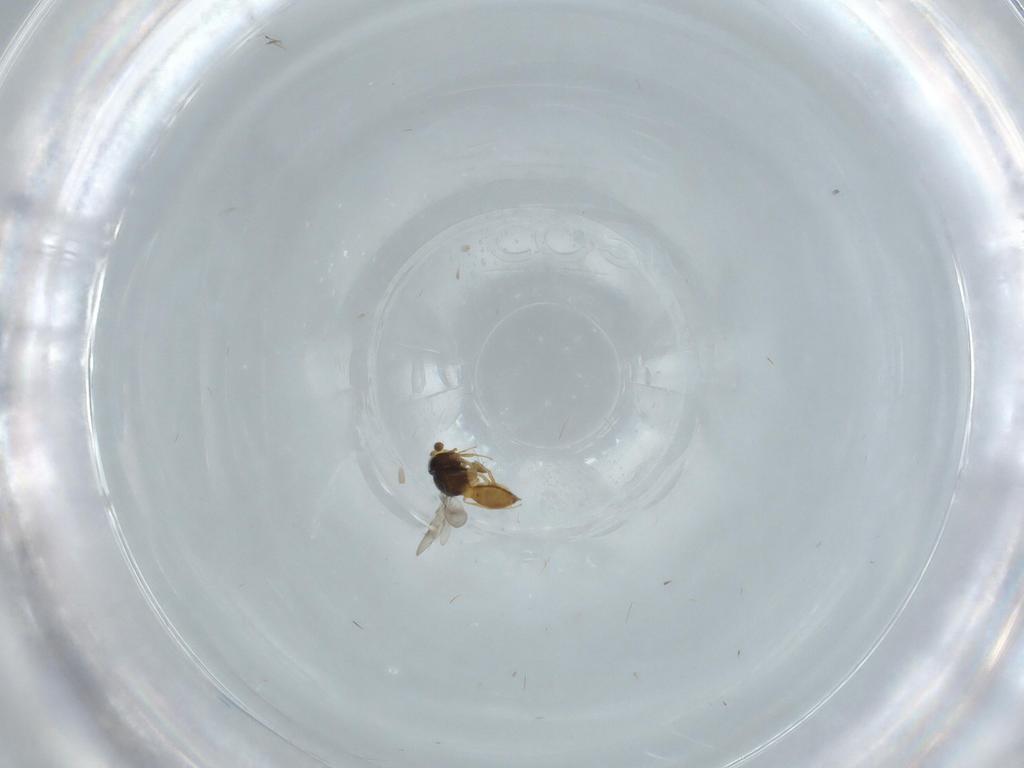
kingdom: Animalia
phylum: Arthropoda
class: Insecta
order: Hymenoptera
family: Scelionidae
